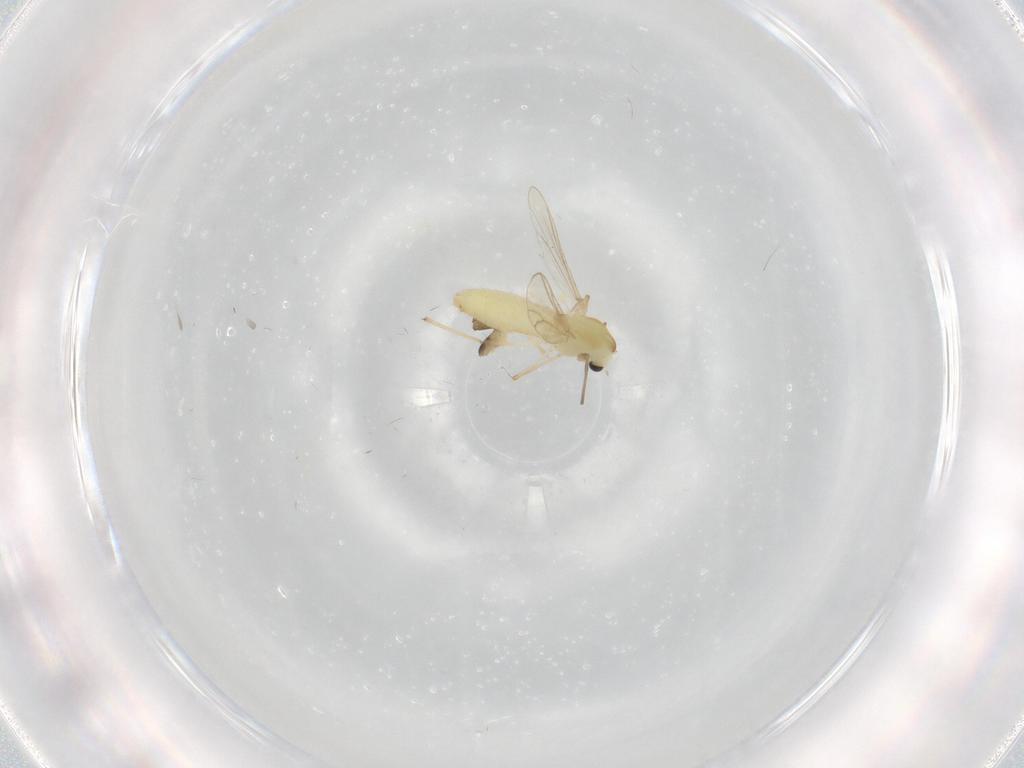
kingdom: Animalia
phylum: Arthropoda
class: Insecta
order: Diptera
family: Chironomidae
